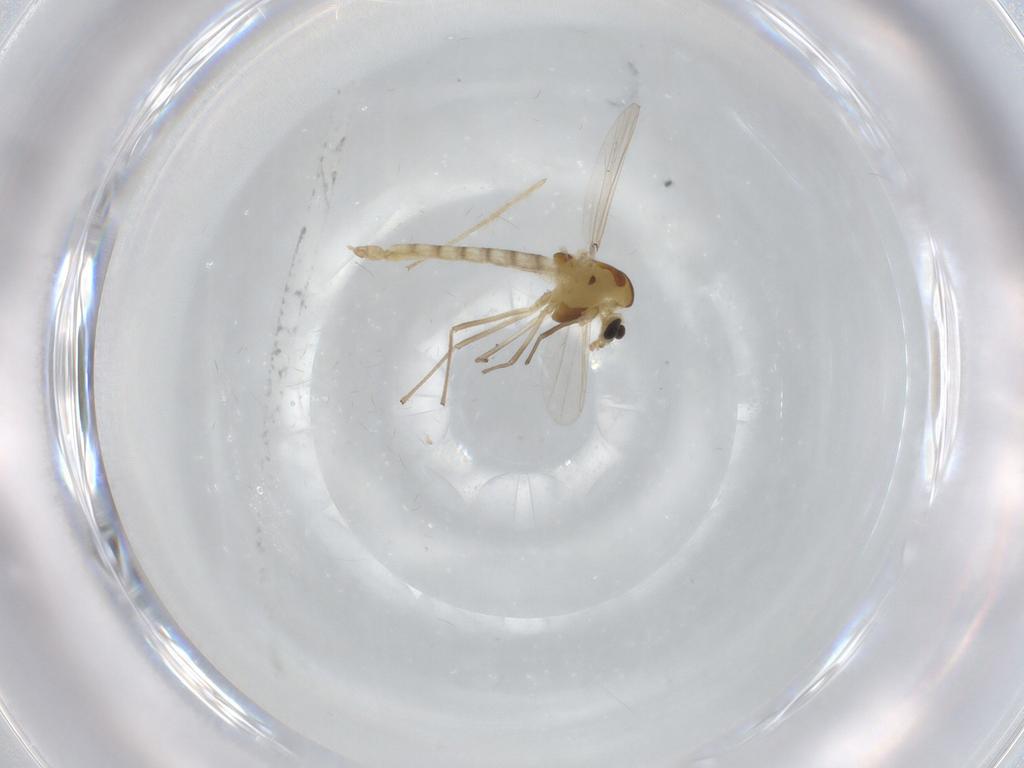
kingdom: Animalia
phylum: Arthropoda
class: Insecta
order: Diptera
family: Chironomidae
